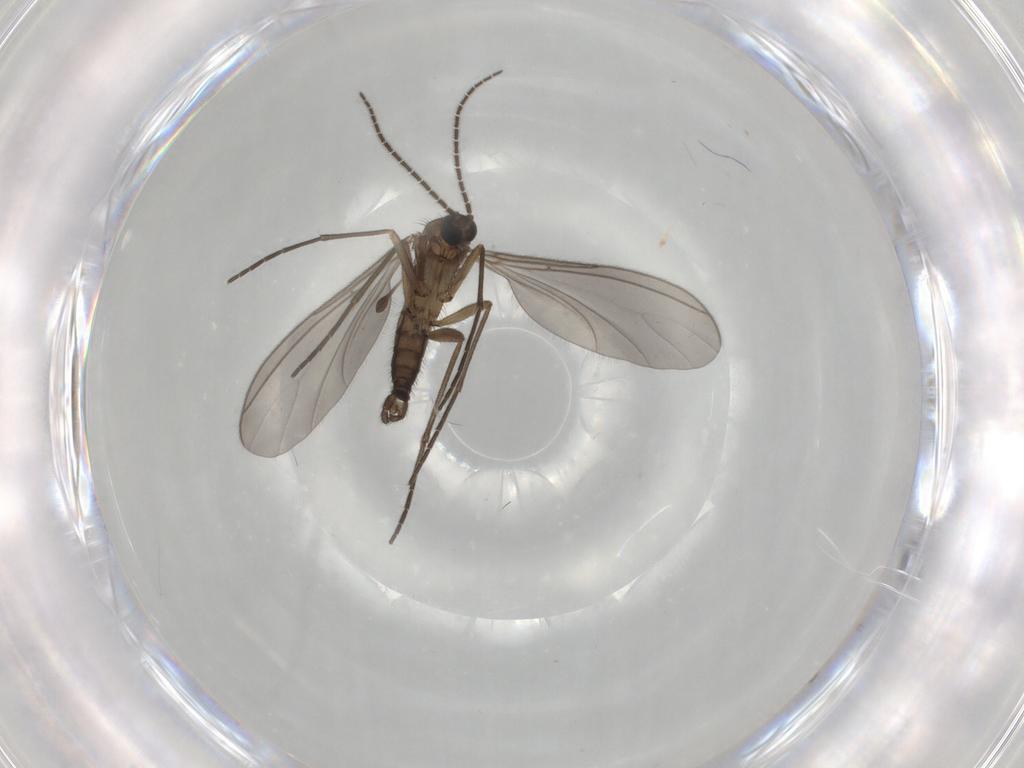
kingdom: Animalia
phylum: Arthropoda
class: Insecta
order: Diptera
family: Sciaridae
